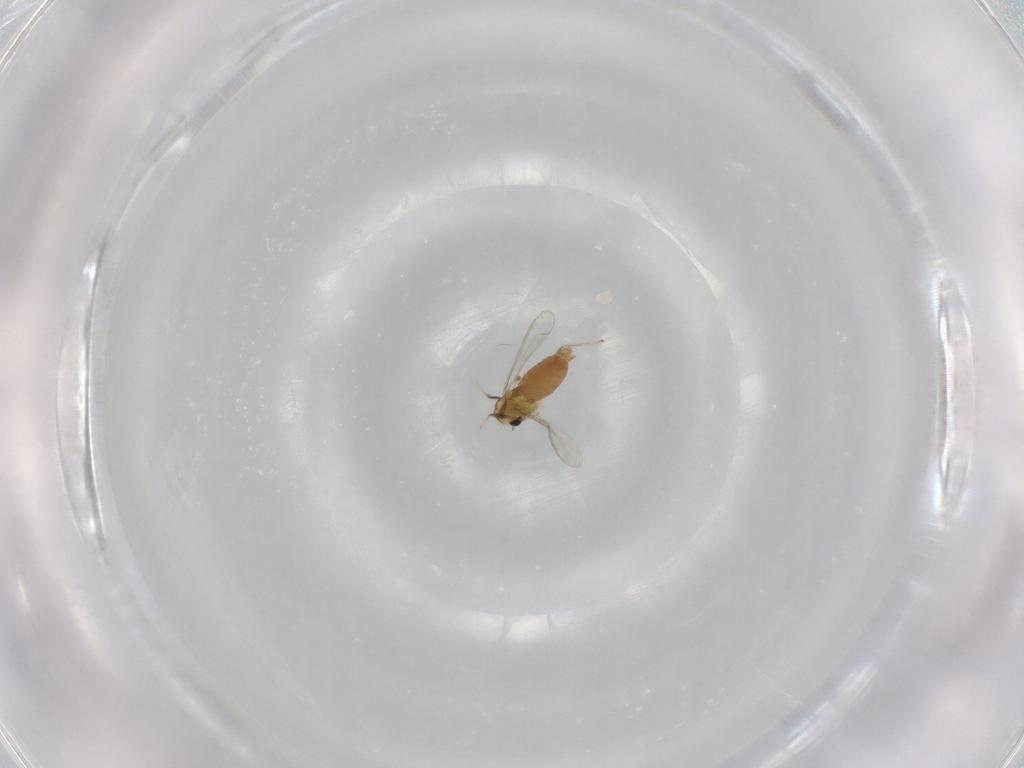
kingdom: Animalia
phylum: Arthropoda
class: Insecta
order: Diptera
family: Chironomidae
